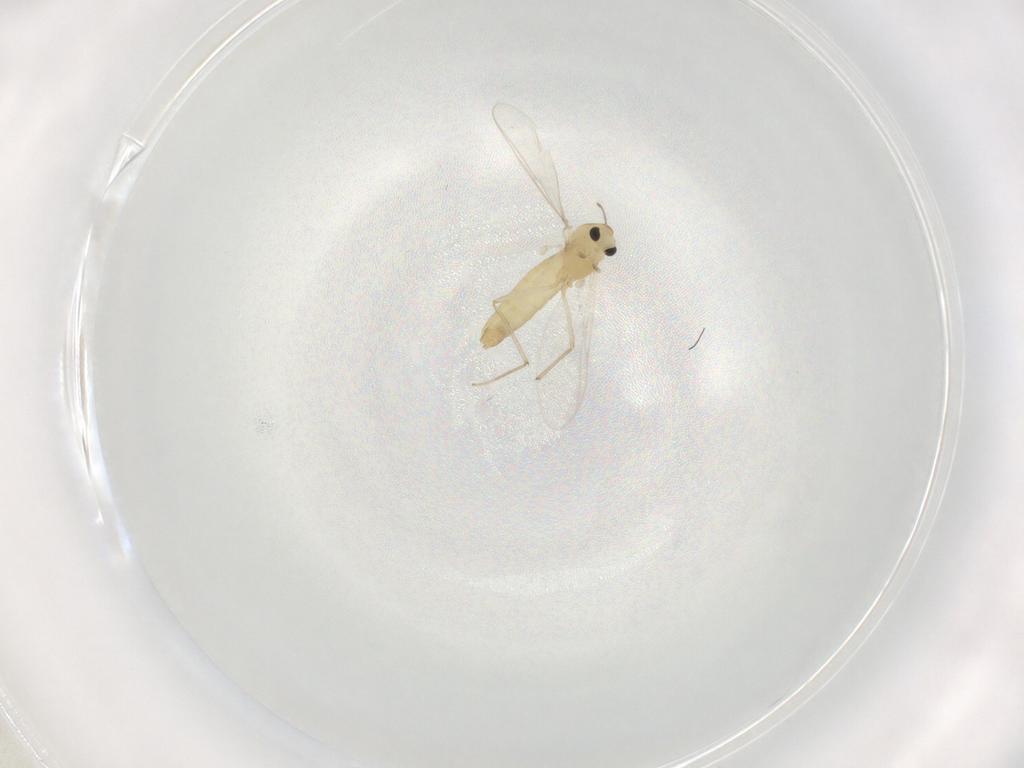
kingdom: Animalia
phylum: Arthropoda
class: Insecta
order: Diptera
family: Chironomidae
